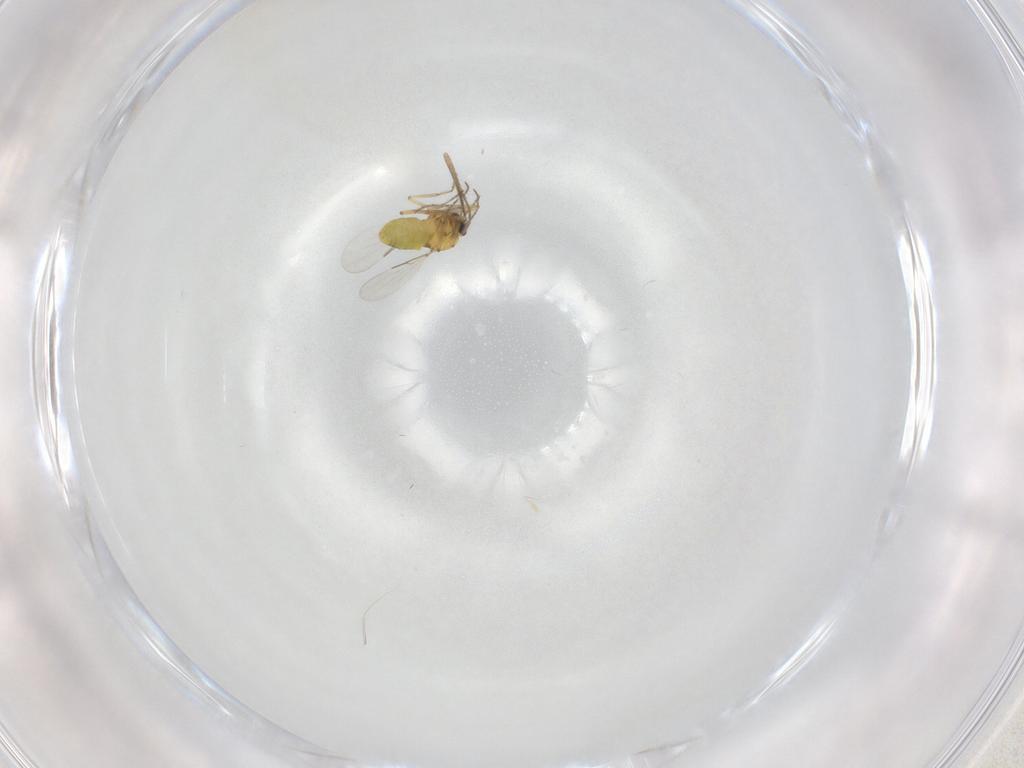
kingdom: Animalia
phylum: Arthropoda
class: Insecta
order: Diptera
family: Ceratopogonidae
